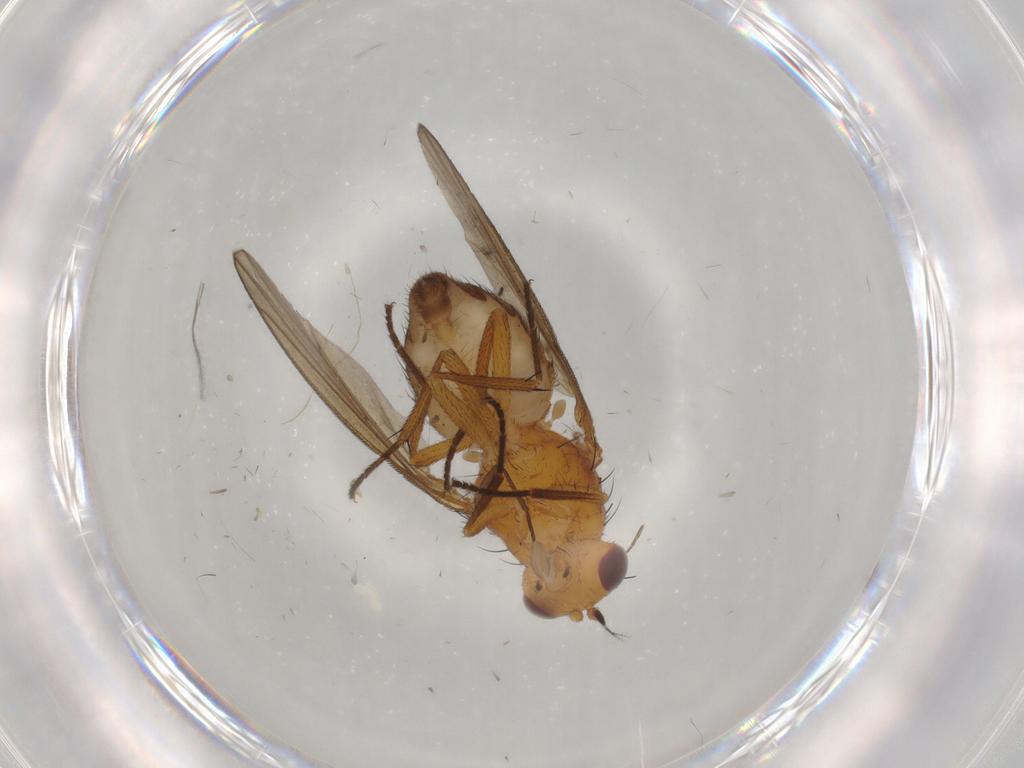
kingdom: Animalia
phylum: Arthropoda
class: Insecta
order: Diptera
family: Lauxaniidae
